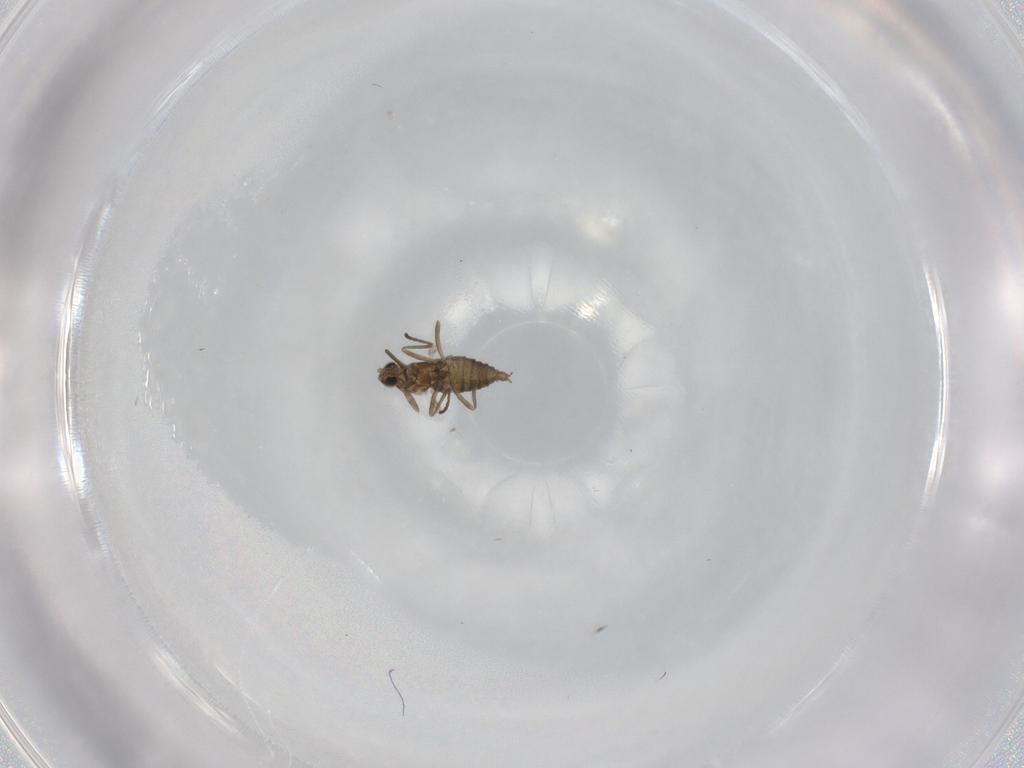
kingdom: Animalia
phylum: Arthropoda
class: Insecta
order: Diptera
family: Cecidomyiidae
